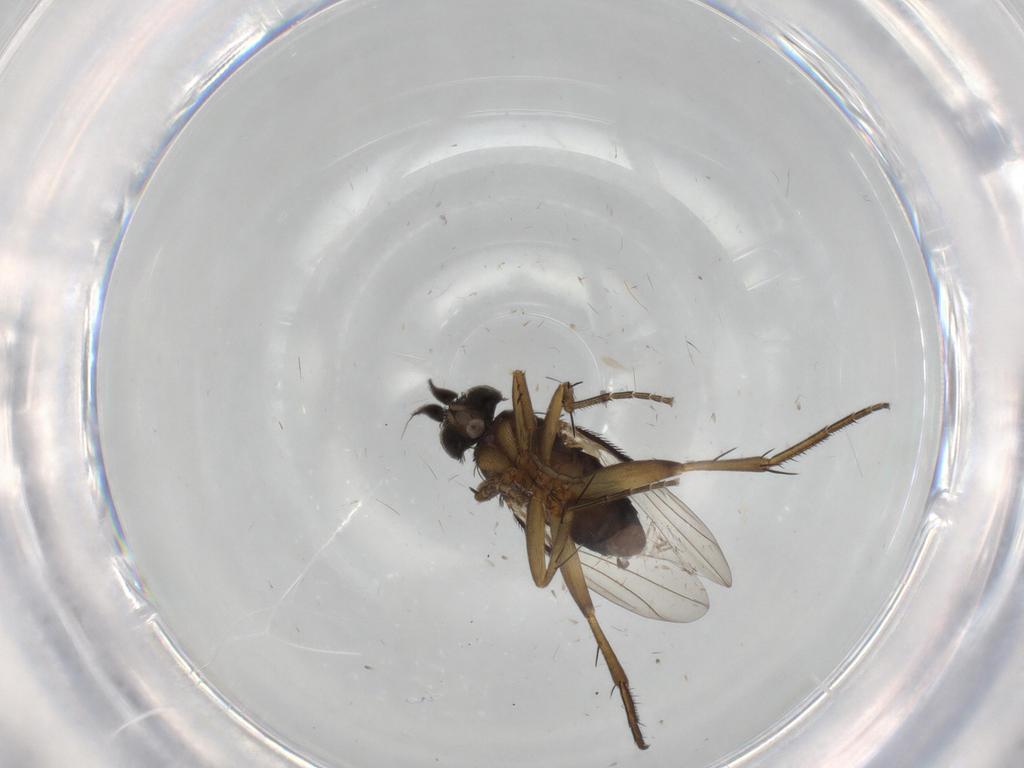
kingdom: Animalia
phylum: Arthropoda
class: Insecta
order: Diptera
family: Phoridae
